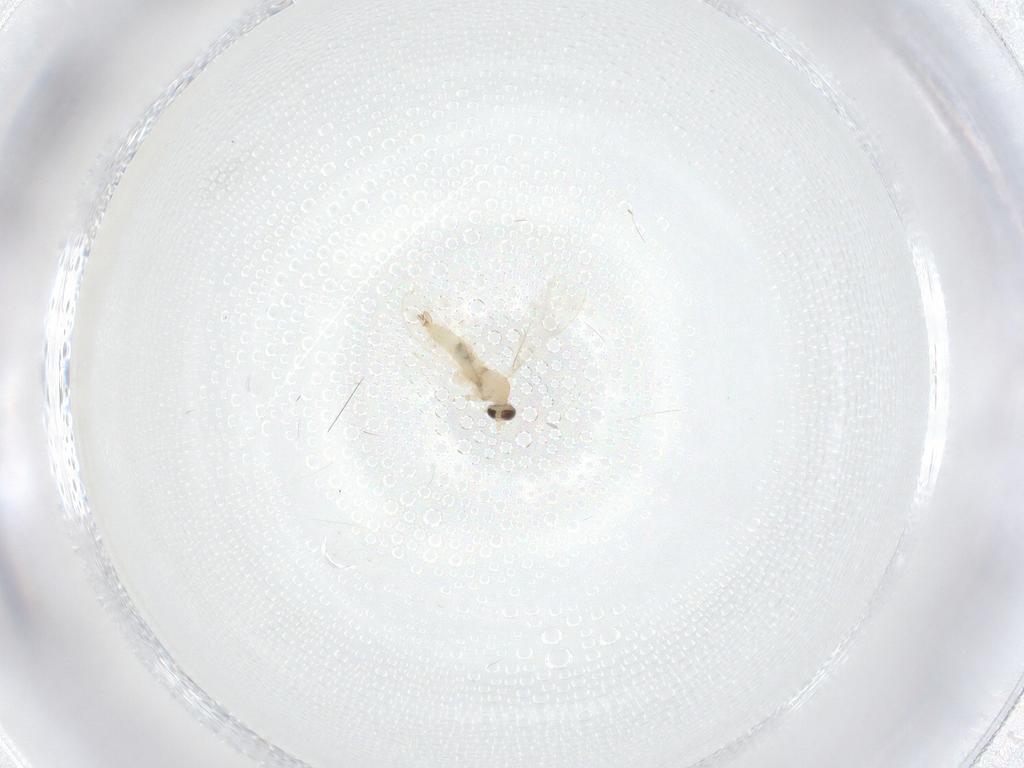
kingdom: Animalia
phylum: Arthropoda
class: Insecta
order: Diptera
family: Cecidomyiidae
